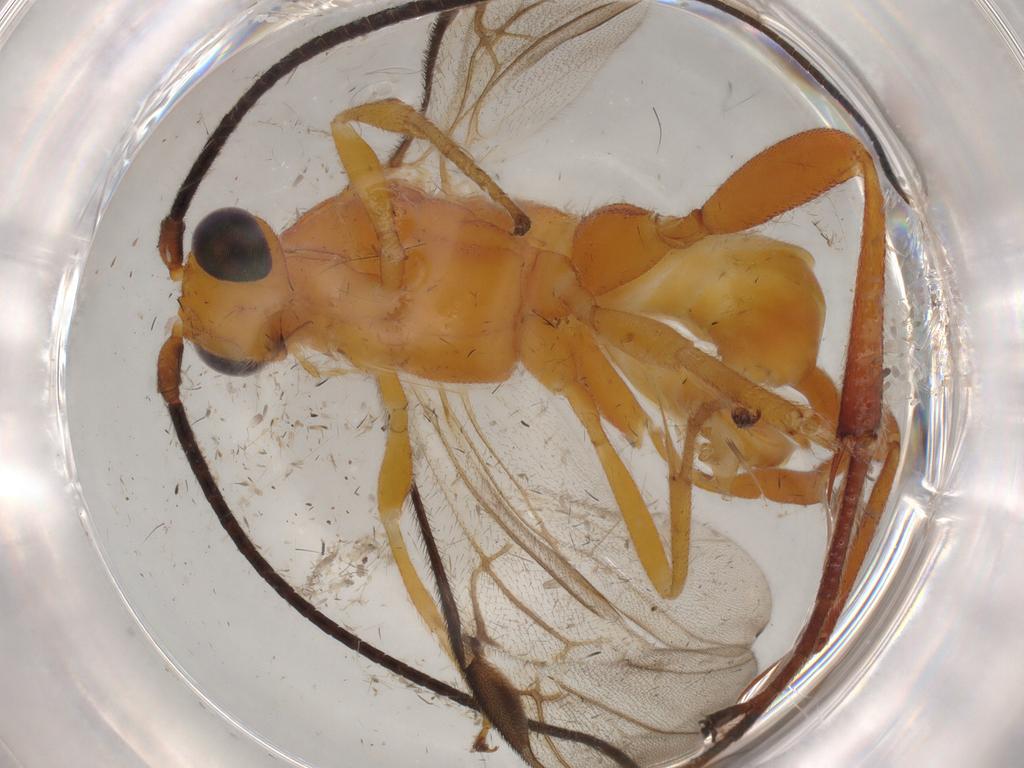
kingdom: Animalia
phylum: Arthropoda
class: Insecta
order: Hymenoptera
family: Braconidae
